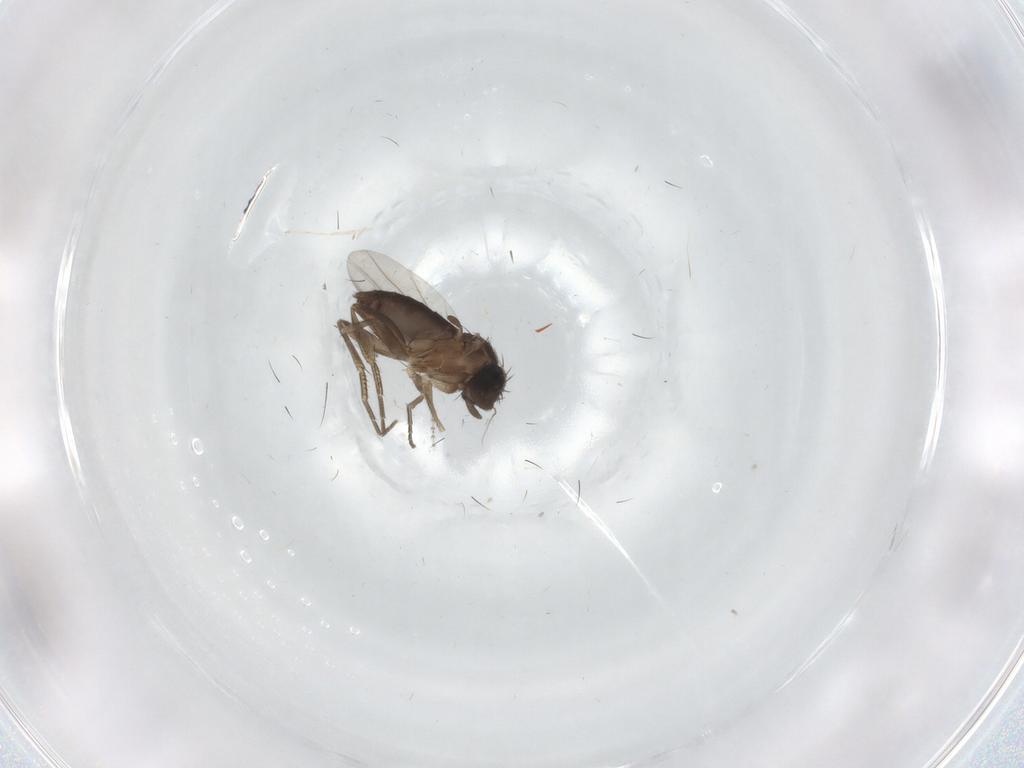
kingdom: Animalia
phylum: Arthropoda
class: Insecta
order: Diptera
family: Phoridae
